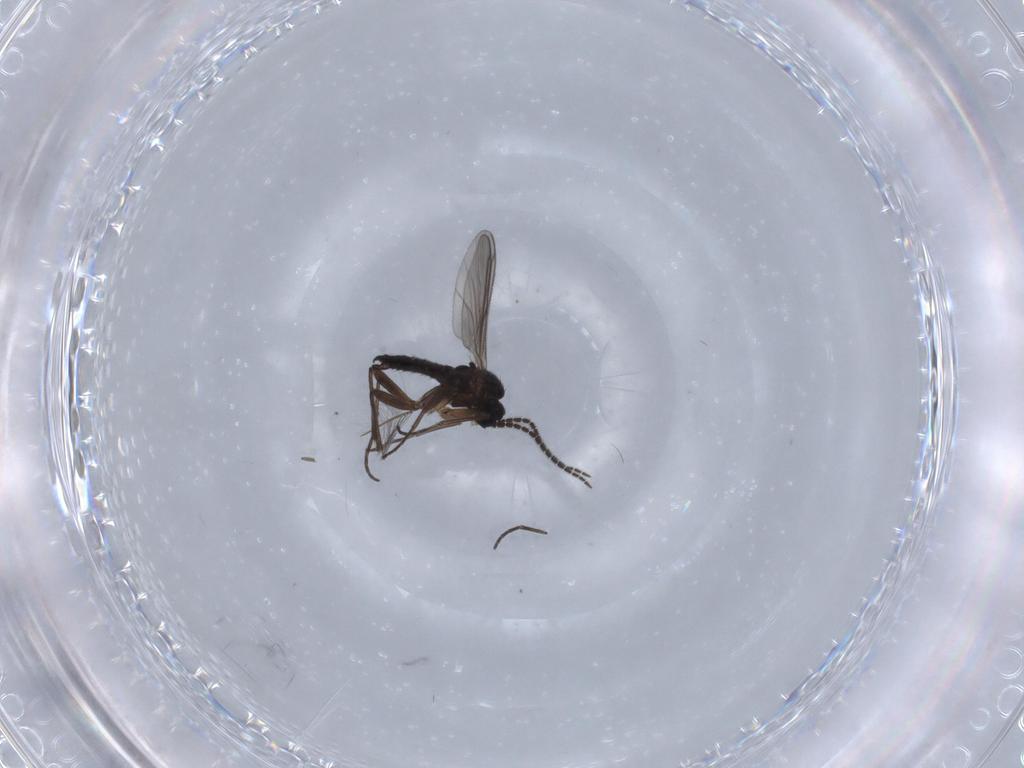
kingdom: Animalia
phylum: Arthropoda
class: Insecta
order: Diptera
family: Sciaridae
